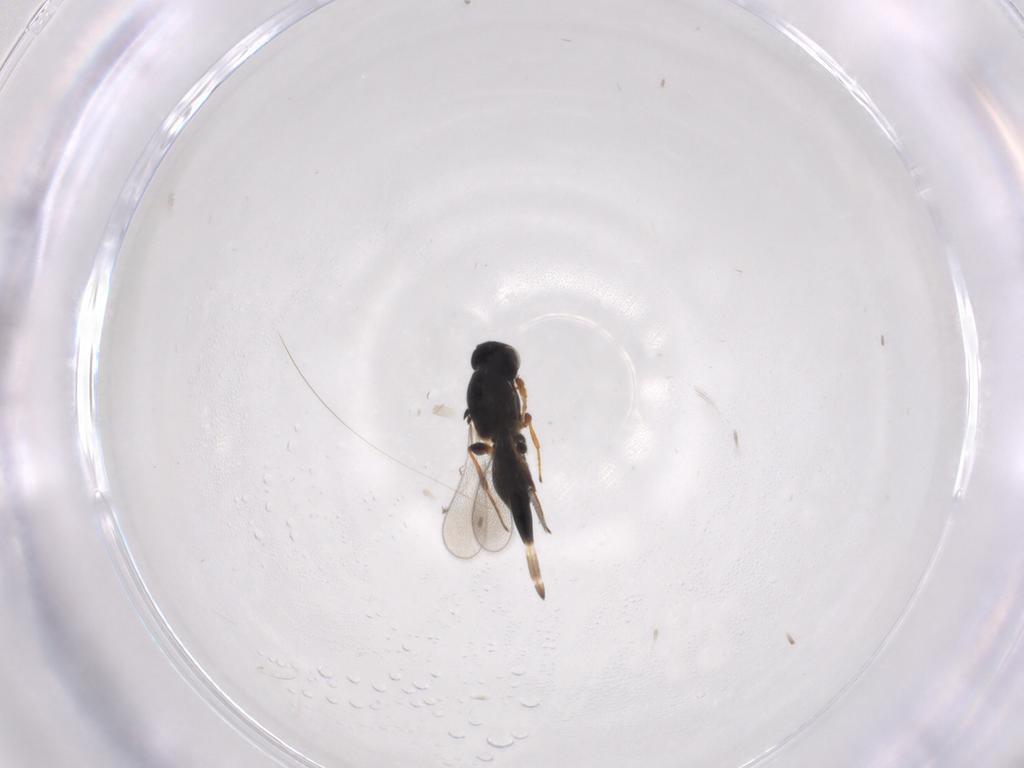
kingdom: Animalia
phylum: Arthropoda
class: Insecta
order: Hymenoptera
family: Platygastridae
